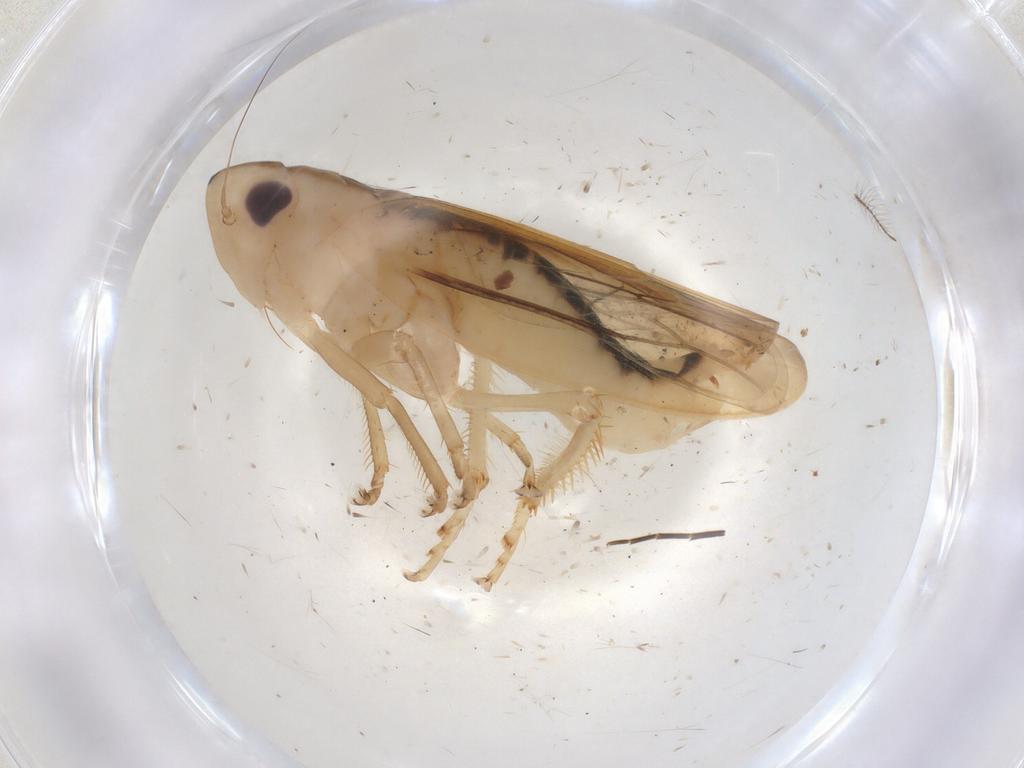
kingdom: Animalia
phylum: Arthropoda
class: Insecta
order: Hemiptera
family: Cicadellidae
